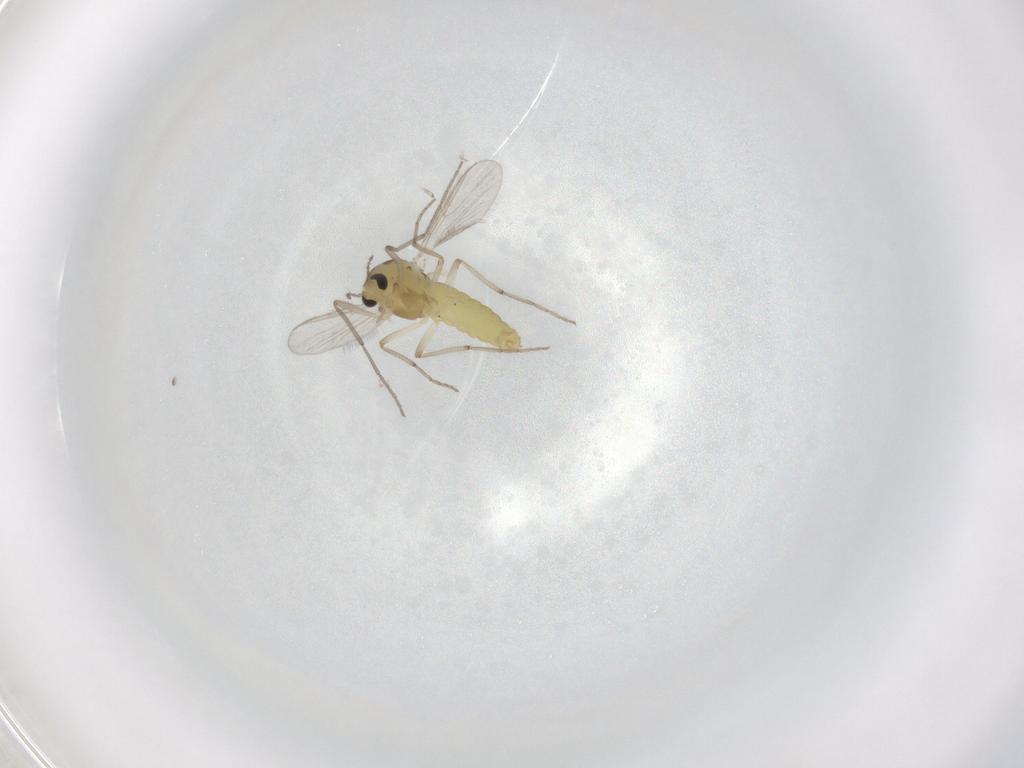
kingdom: Animalia
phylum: Arthropoda
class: Insecta
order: Diptera
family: Chironomidae
